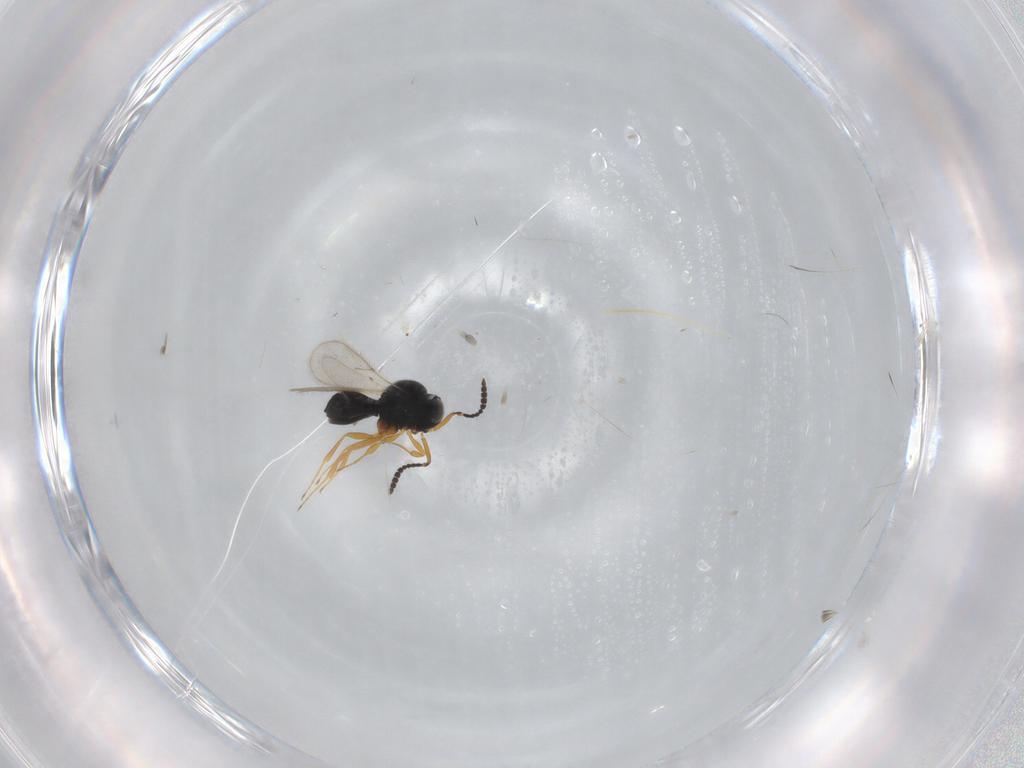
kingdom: Animalia
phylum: Arthropoda
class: Insecta
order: Hymenoptera
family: Scelionidae
